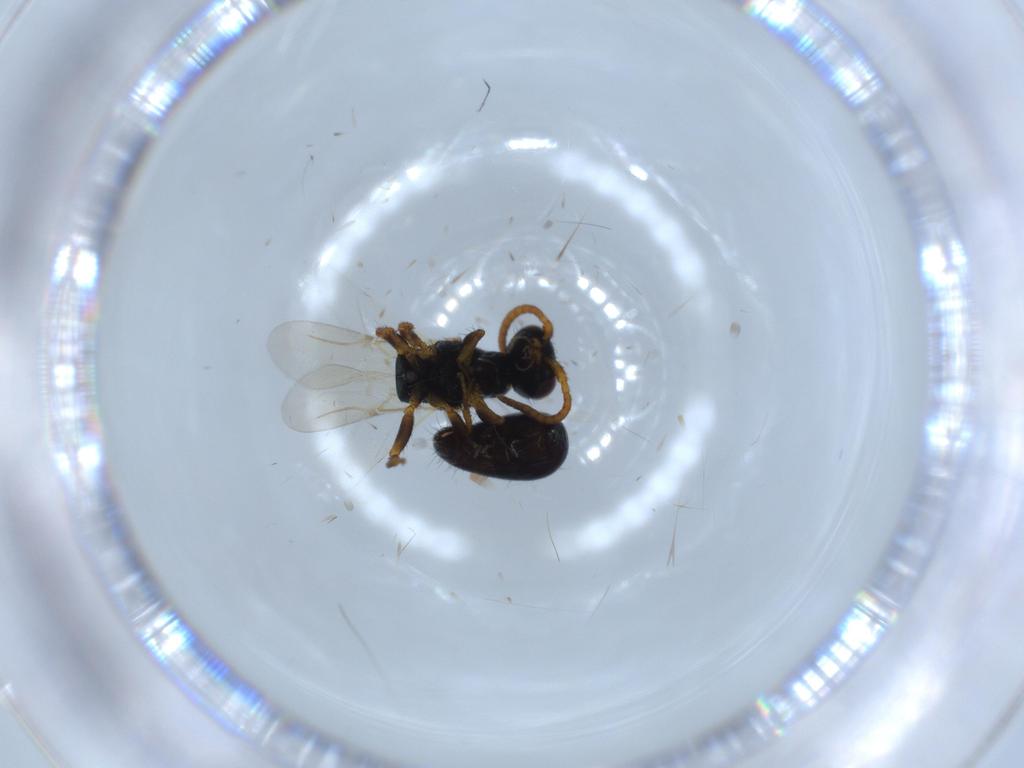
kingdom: Animalia
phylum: Arthropoda
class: Insecta
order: Hymenoptera
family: Bethylidae
